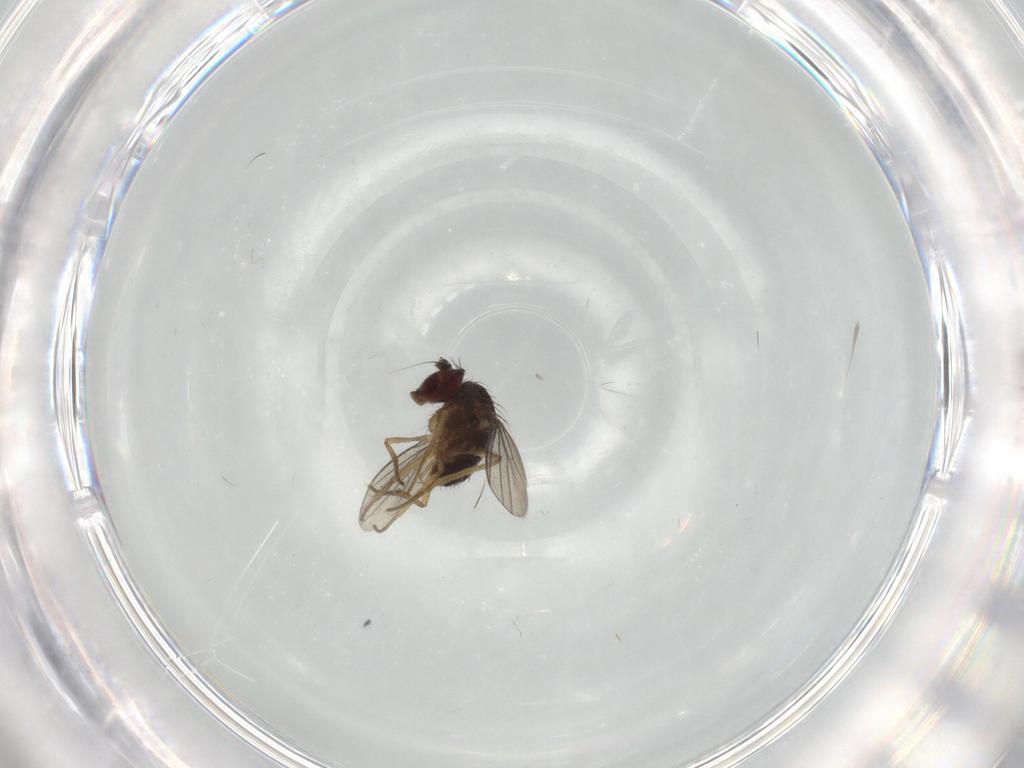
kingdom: Animalia
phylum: Arthropoda
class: Insecta
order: Diptera
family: Dolichopodidae
